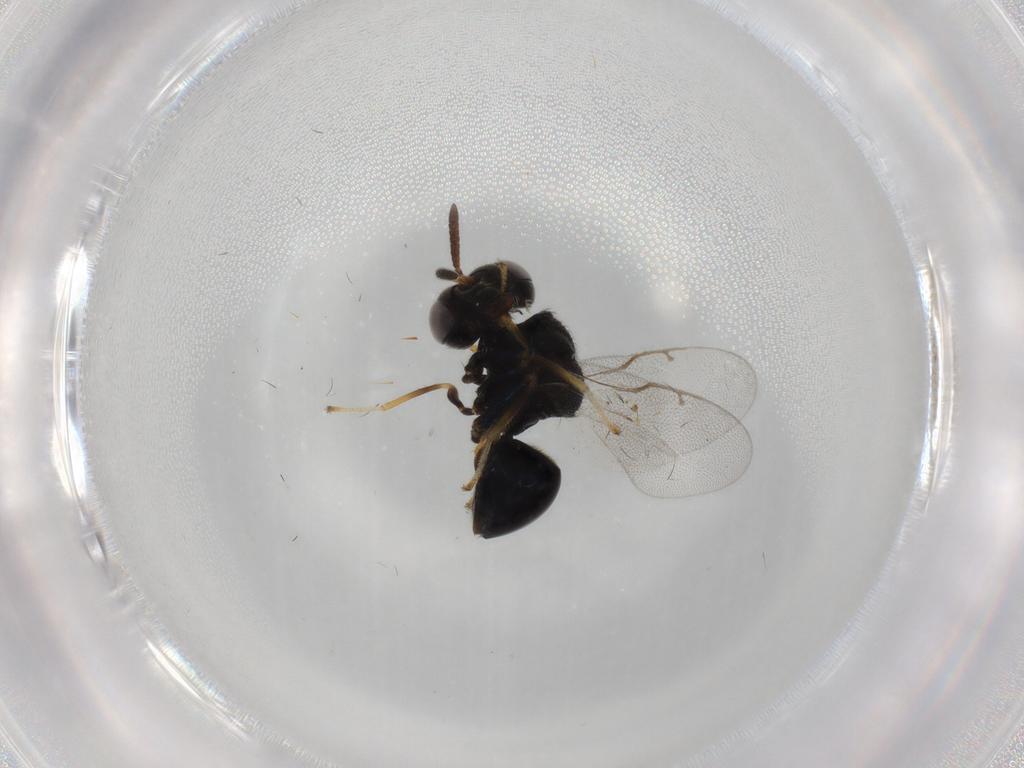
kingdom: Animalia
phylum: Arthropoda
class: Insecta
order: Hymenoptera
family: Perilampidae
